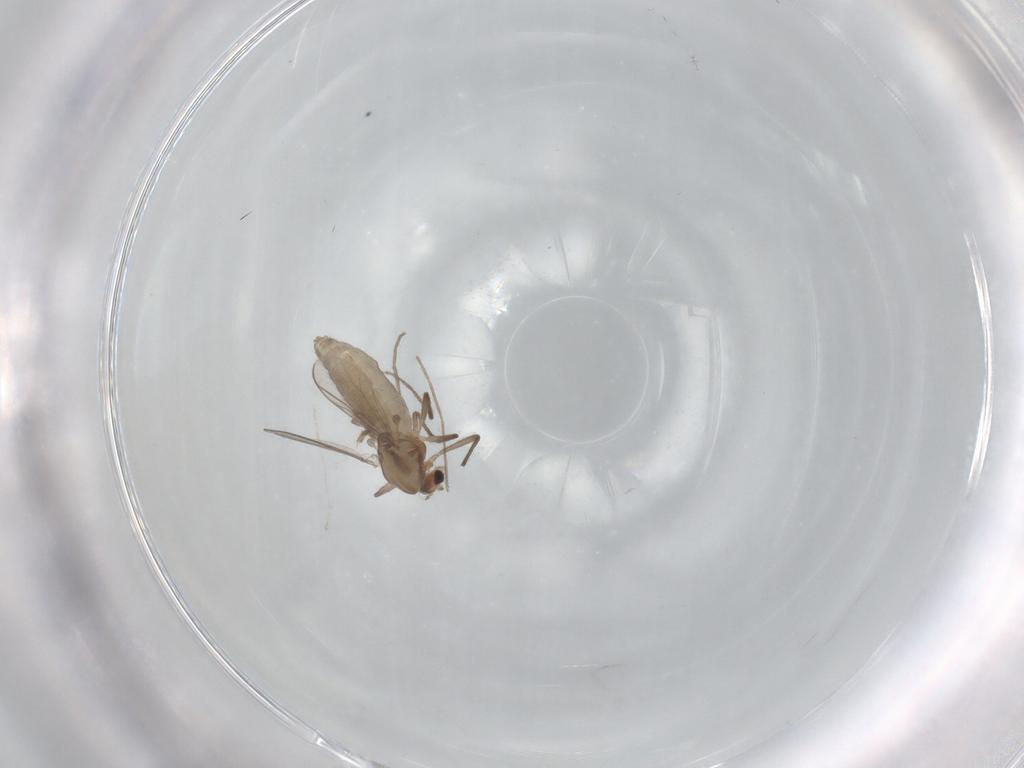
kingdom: Animalia
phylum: Arthropoda
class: Insecta
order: Diptera
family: Chironomidae
